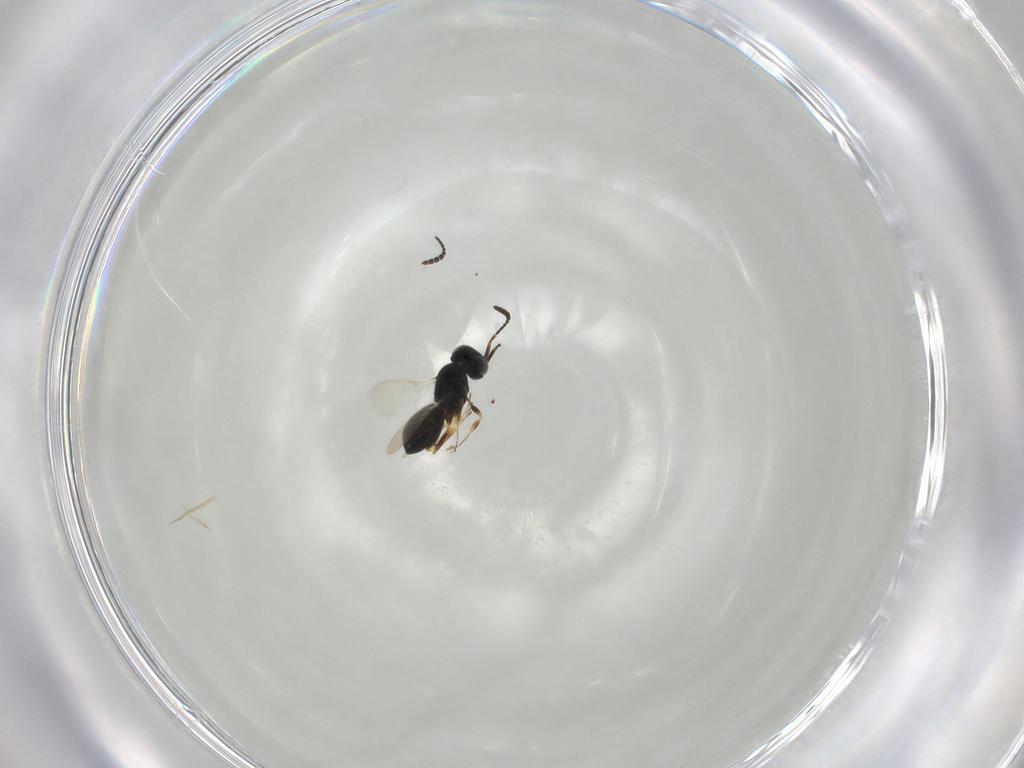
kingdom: Animalia
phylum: Arthropoda
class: Insecta
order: Hymenoptera
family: Scelionidae
